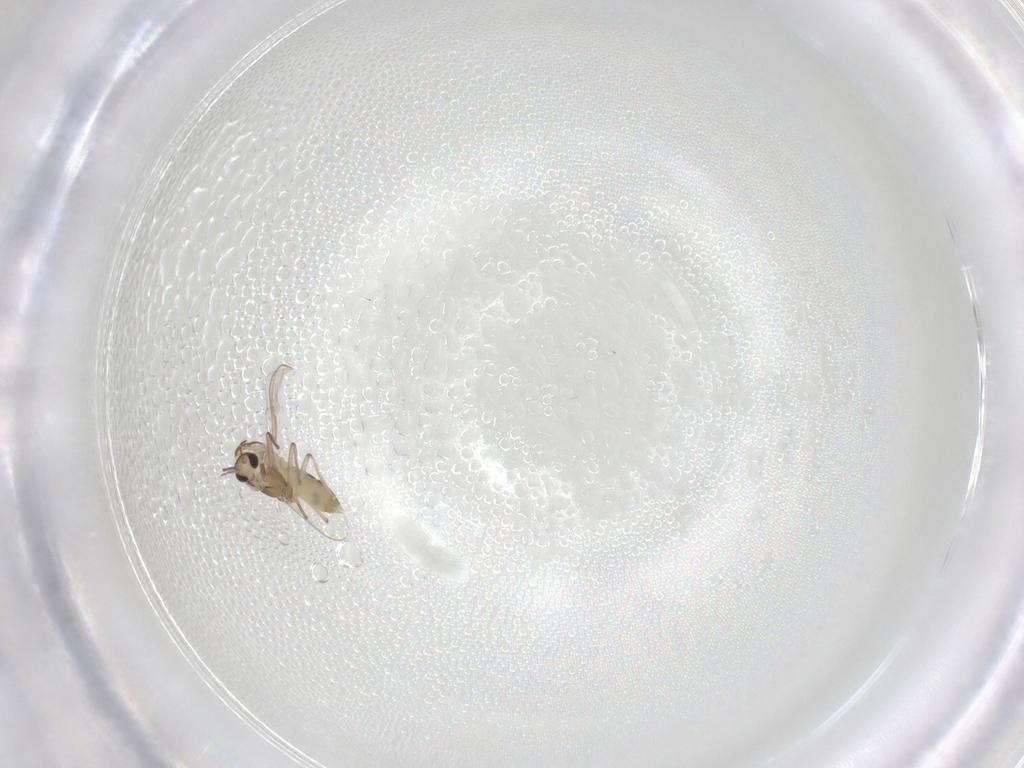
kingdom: Animalia
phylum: Arthropoda
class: Insecta
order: Diptera
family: Chironomidae
